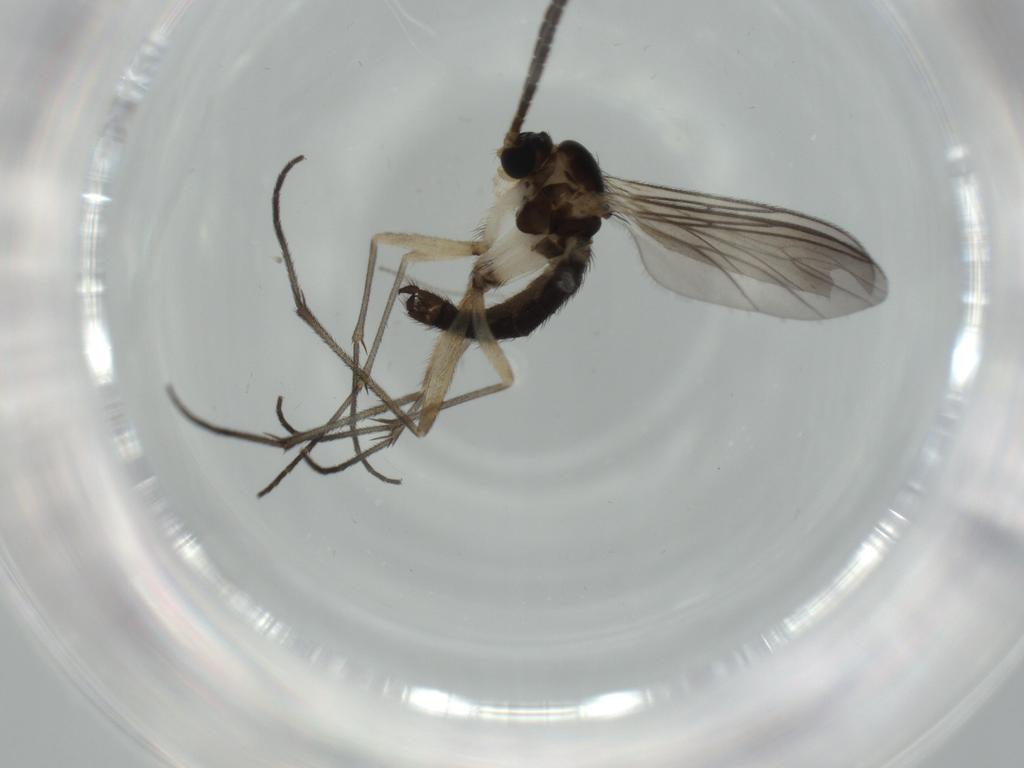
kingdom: Animalia
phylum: Arthropoda
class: Insecta
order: Diptera
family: Sciaridae
